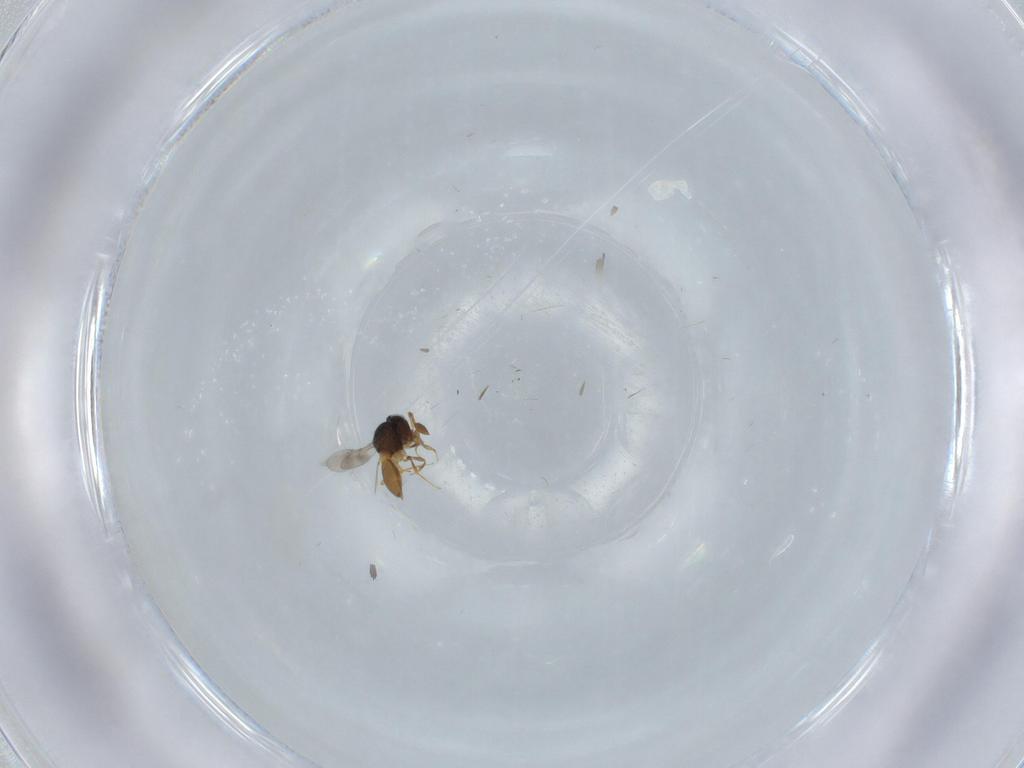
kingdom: Animalia
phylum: Arthropoda
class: Insecta
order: Hymenoptera
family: Scelionidae
